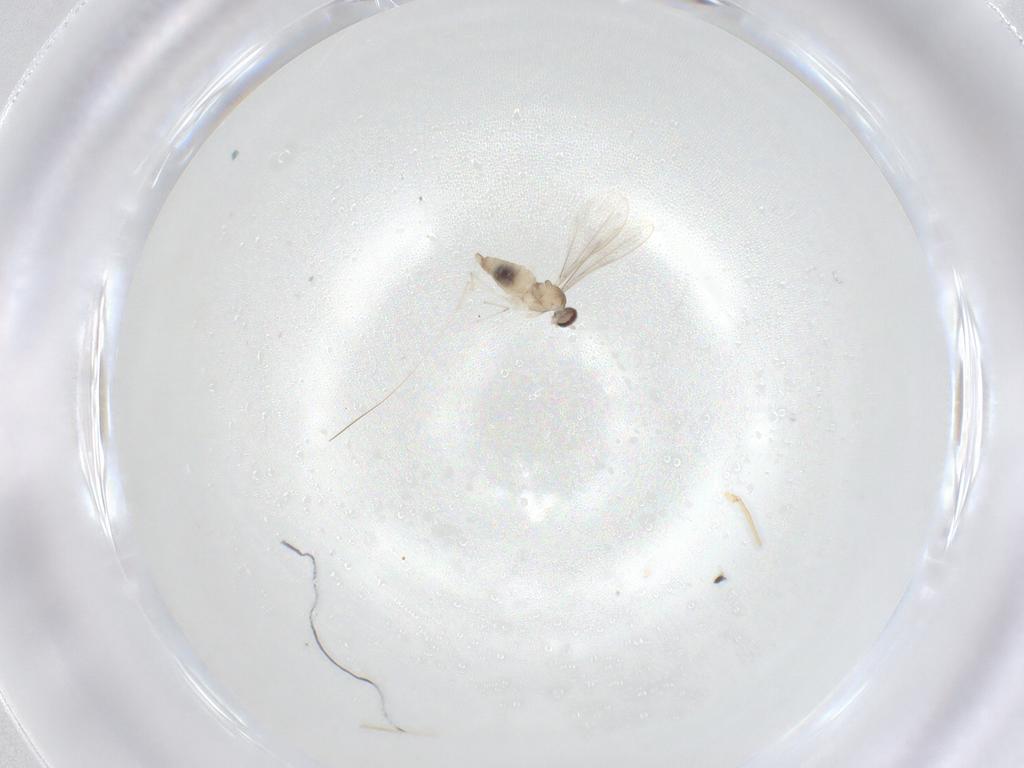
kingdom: Animalia
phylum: Arthropoda
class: Insecta
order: Diptera
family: Cecidomyiidae
